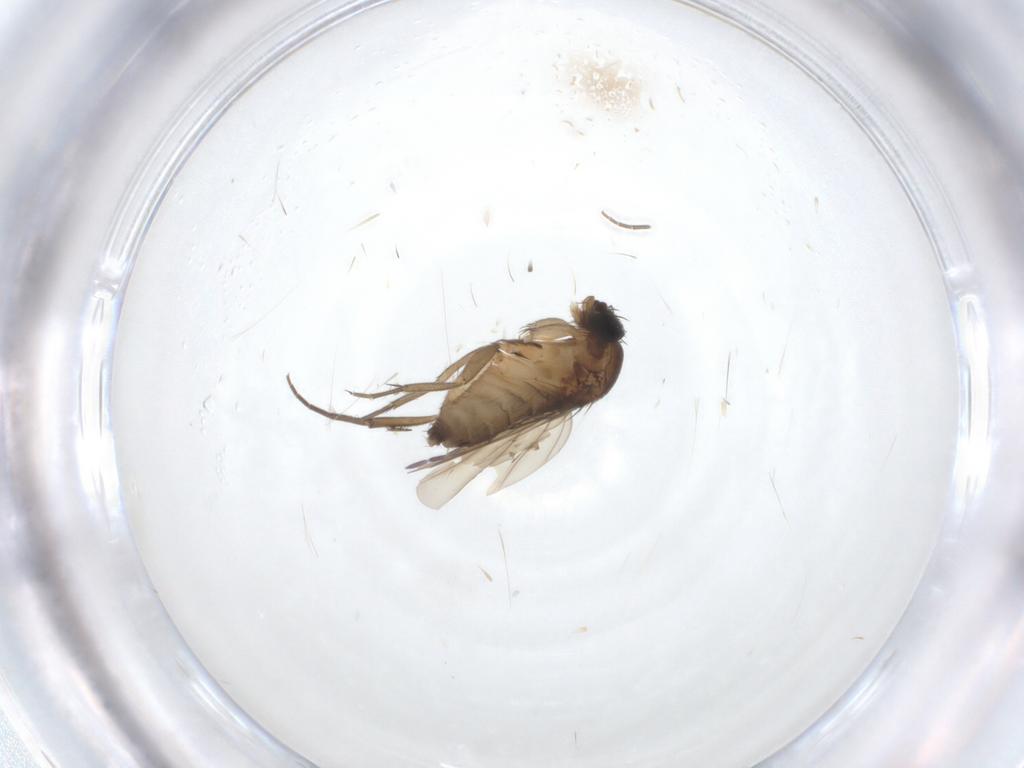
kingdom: Animalia
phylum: Arthropoda
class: Insecta
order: Diptera
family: Phoridae
